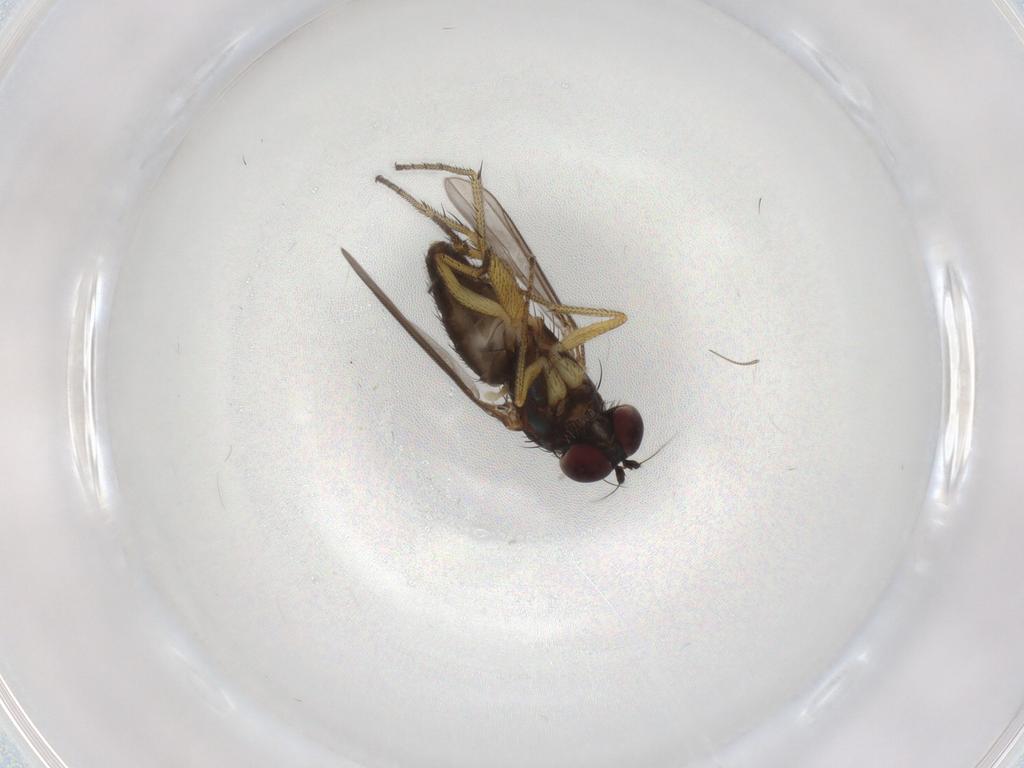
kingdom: Animalia
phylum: Arthropoda
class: Insecta
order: Diptera
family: Chironomidae
